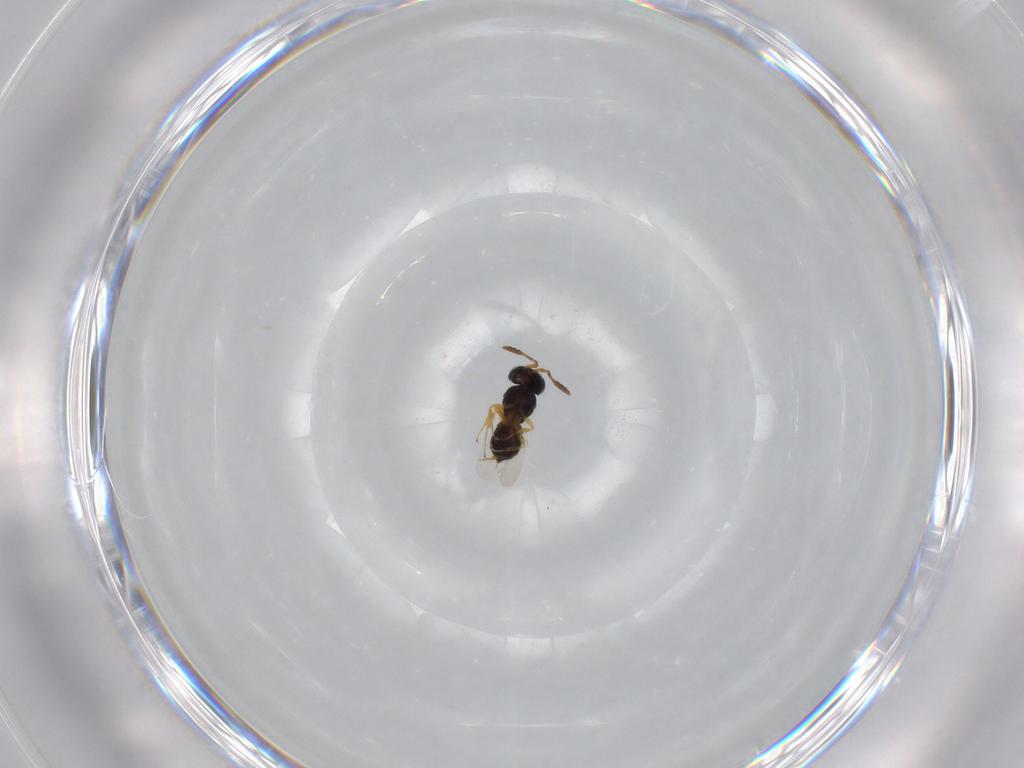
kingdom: Animalia
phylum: Arthropoda
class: Insecta
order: Hymenoptera
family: Scelionidae
